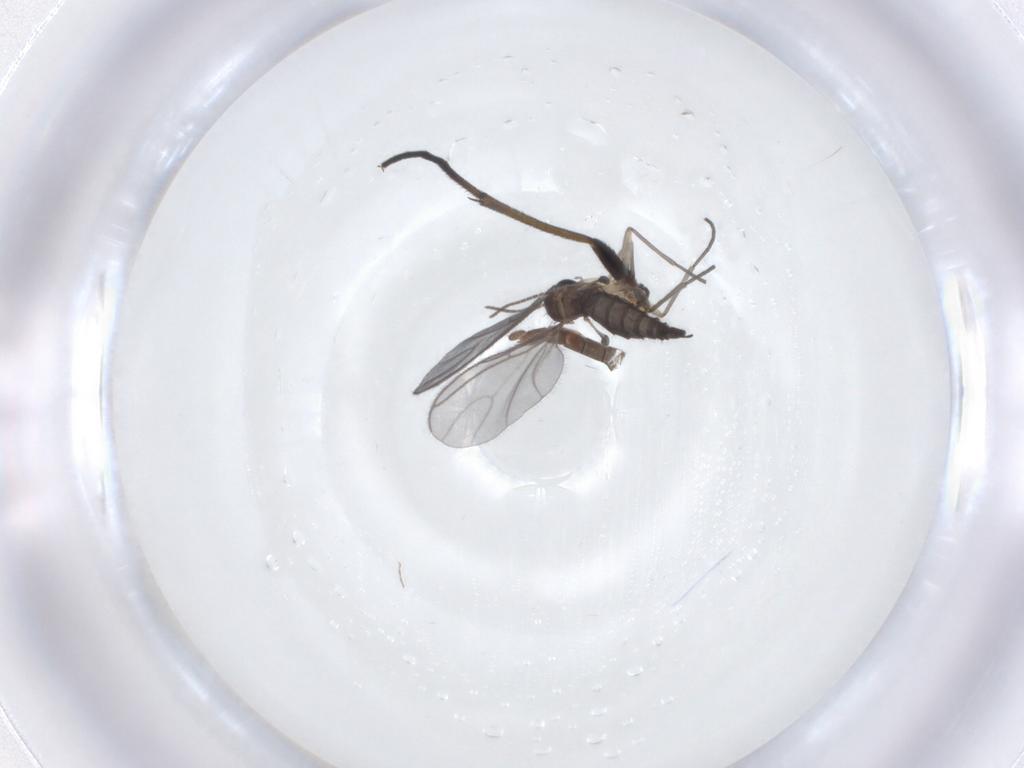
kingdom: Animalia
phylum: Arthropoda
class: Insecta
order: Diptera
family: Chironomidae
